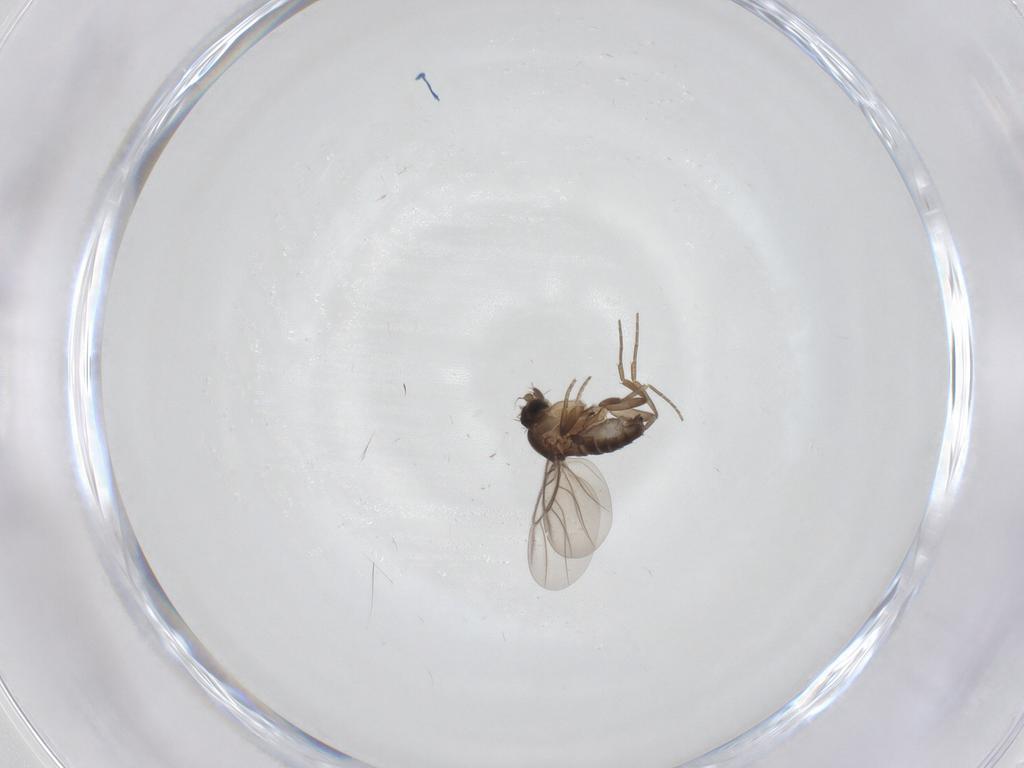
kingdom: Animalia
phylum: Arthropoda
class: Insecta
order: Diptera
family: Phoridae
